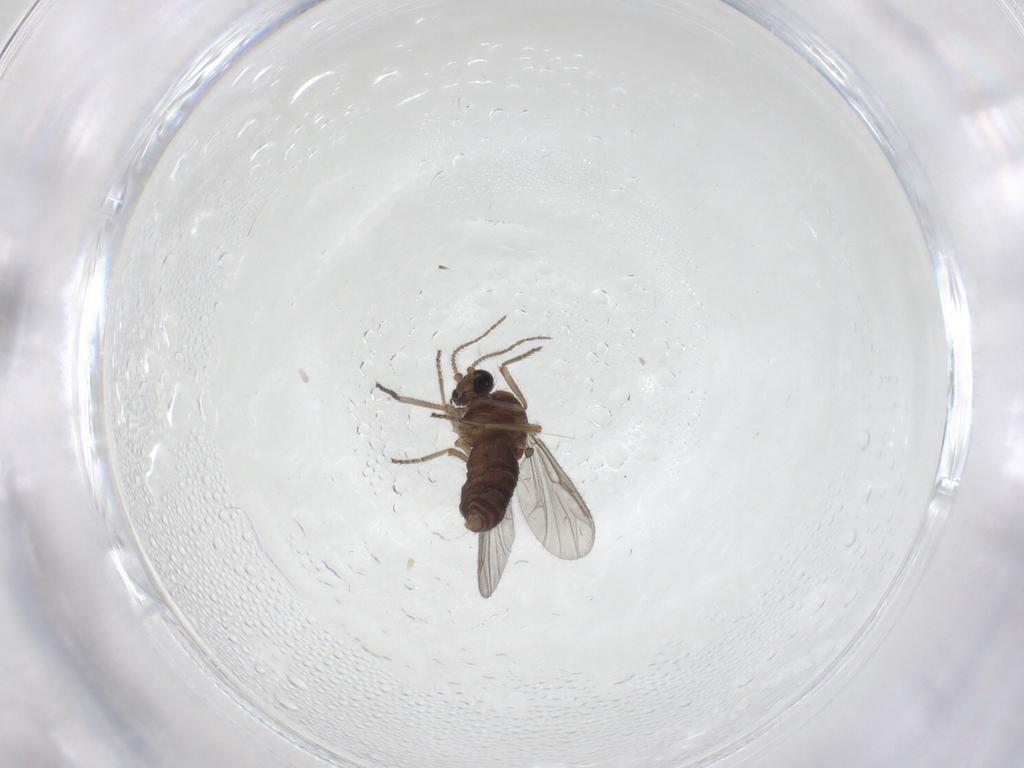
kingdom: Animalia
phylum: Arthropoda
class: Insecta
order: Diptera
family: Ceratopogonidae
